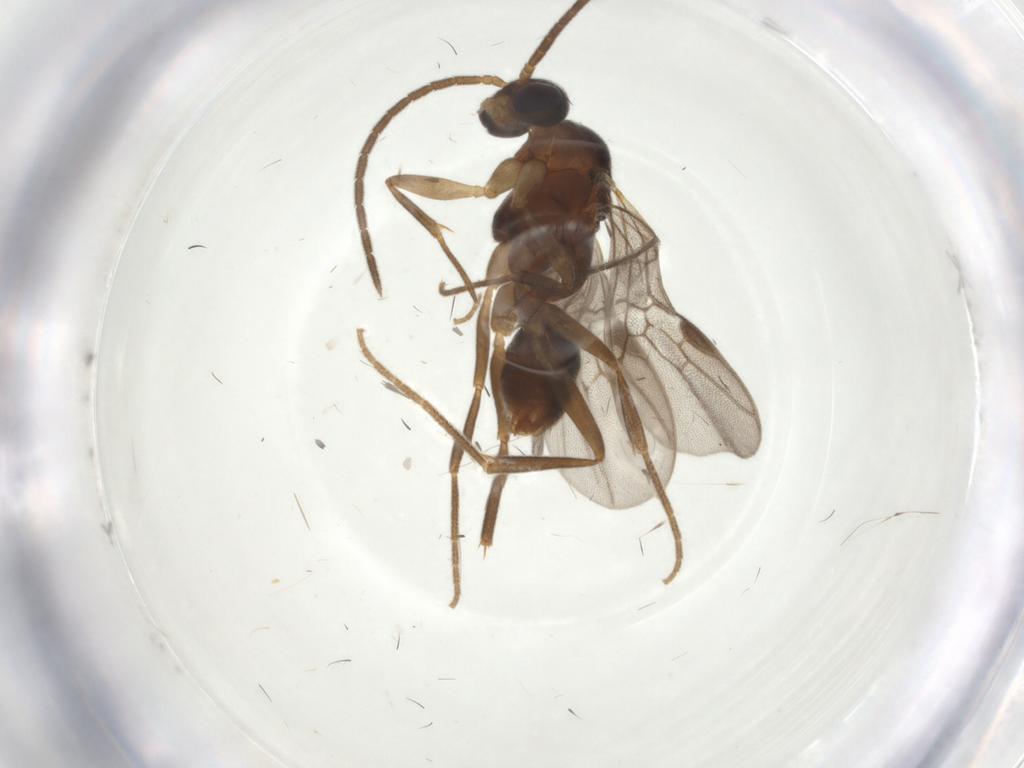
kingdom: Animalia
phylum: Arthropoda
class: Insecta
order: Hymenoptera
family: Formicidae
